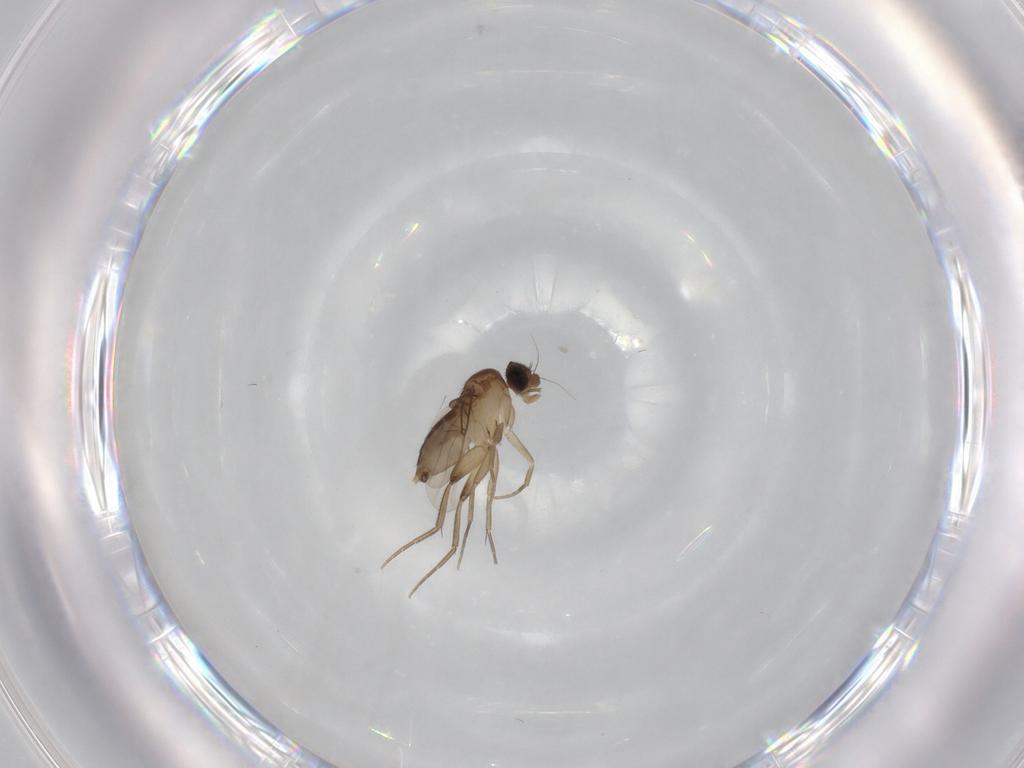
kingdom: Animalia
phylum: Arthropoda
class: Insecta
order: Diptera
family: Phoridae
